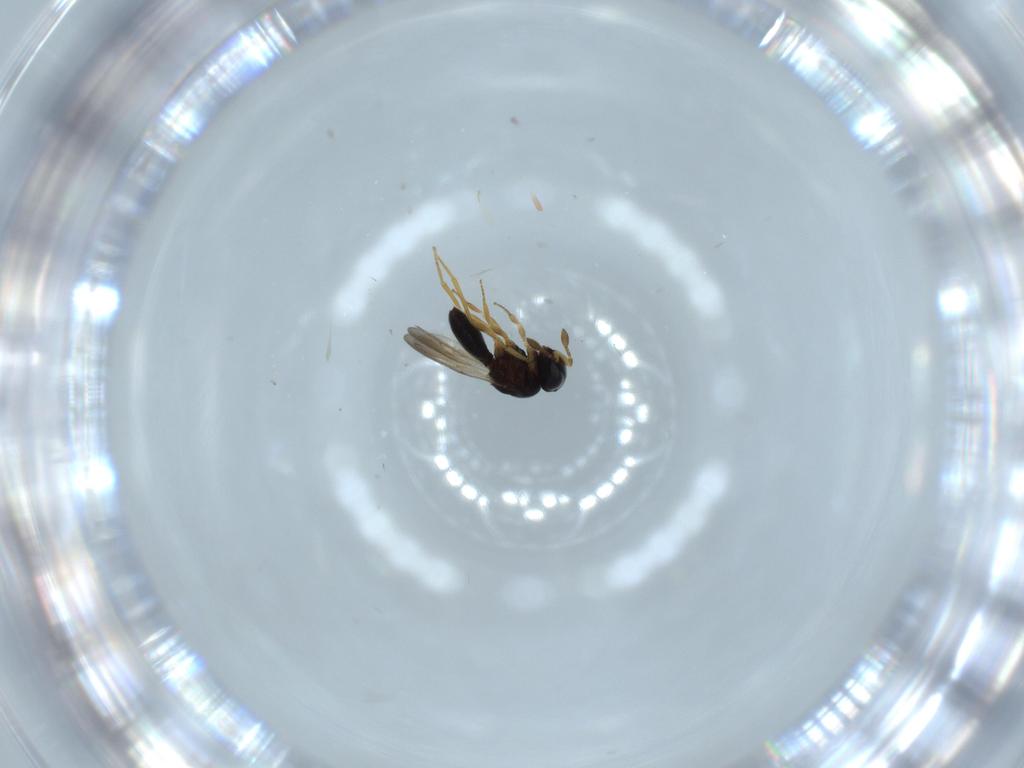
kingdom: Animalia
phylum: Arthropoda
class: Insecta
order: Hymenoptera
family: Scelionidae
